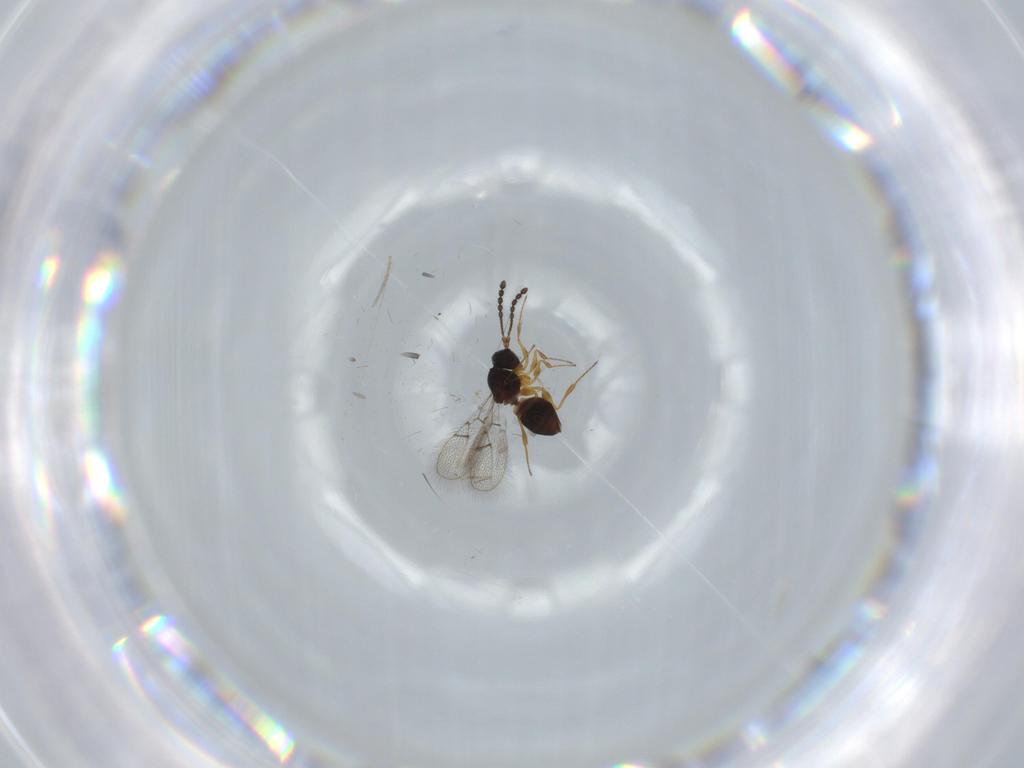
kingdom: Animalia
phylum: Arthropoda
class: Insecta
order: Hymenoptera
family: Figitidae
